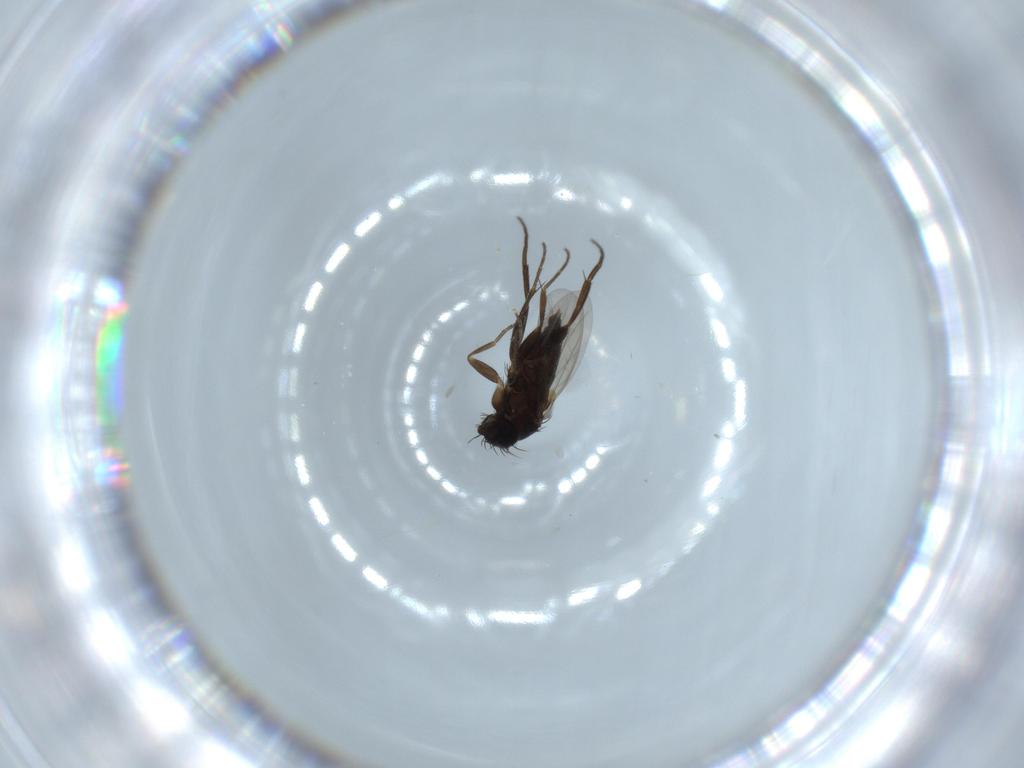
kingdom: Animalia
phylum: Arthropoda
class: Insecta
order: Diptera
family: Sciaridae
